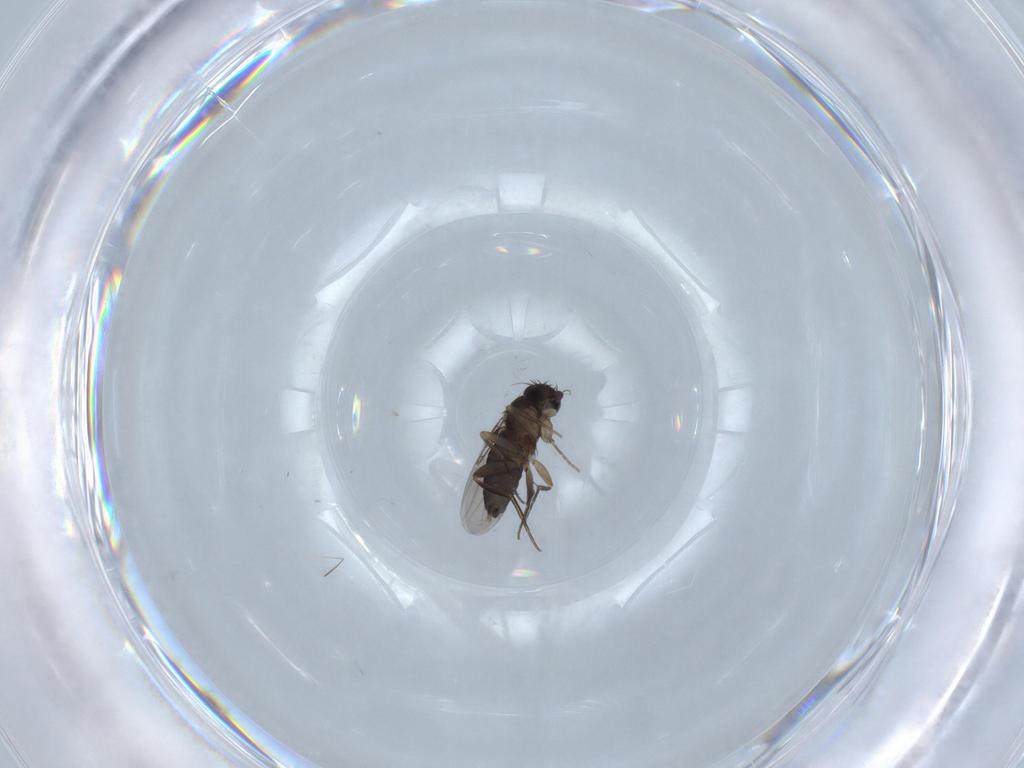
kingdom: Animalia
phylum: Arthropoda
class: Insecta
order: Diptera
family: Phoridae
